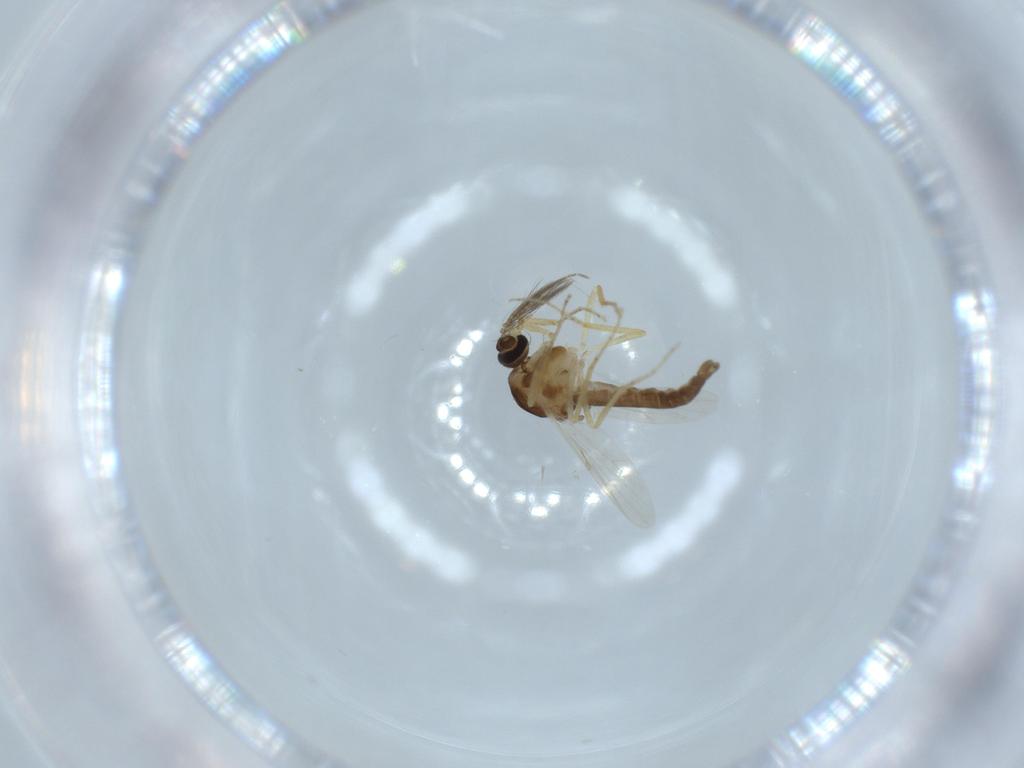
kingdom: Animalia
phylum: Arthropoda
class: Insecta
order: Diptera
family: Ceratopogonidae
